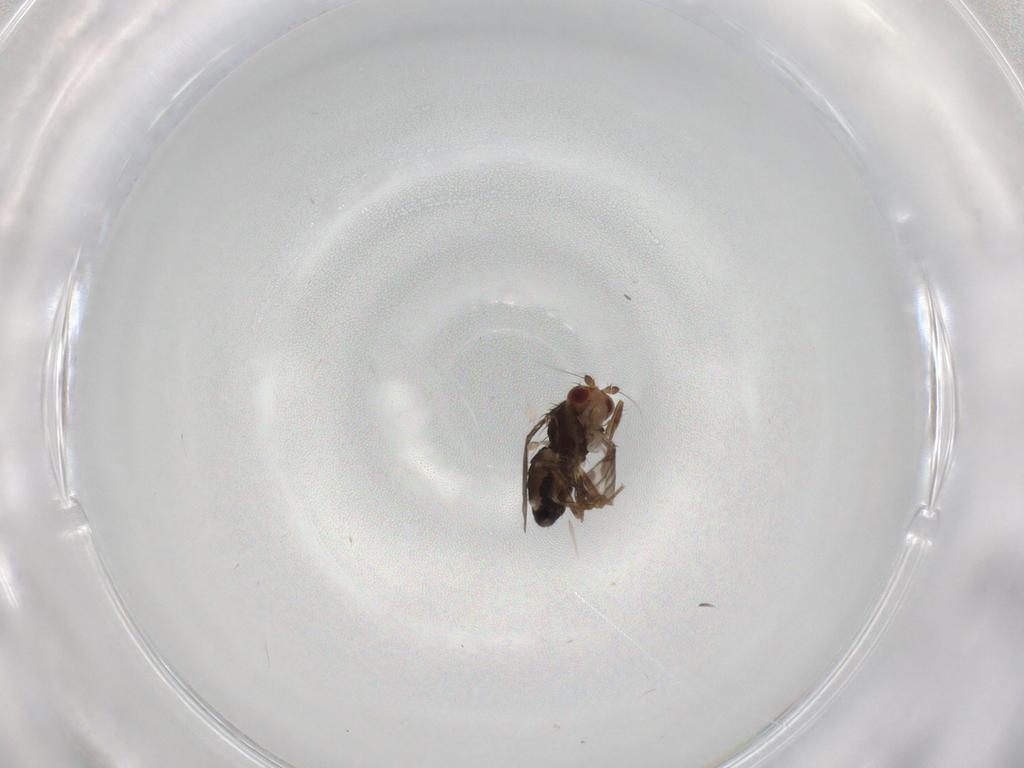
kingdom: Animalia
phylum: Arthropoda
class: Insecta
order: Diptera
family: Sphaeroceridae
